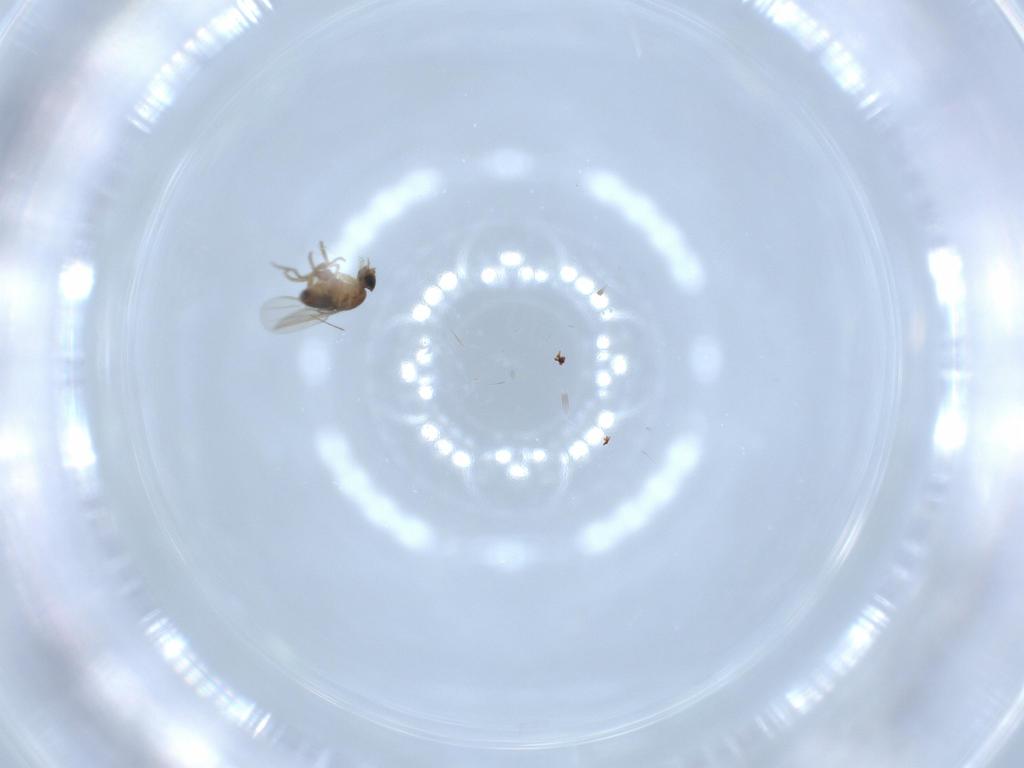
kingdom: Animalia
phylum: Arthropoda
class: Insecta
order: Diptera
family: Phoridae
